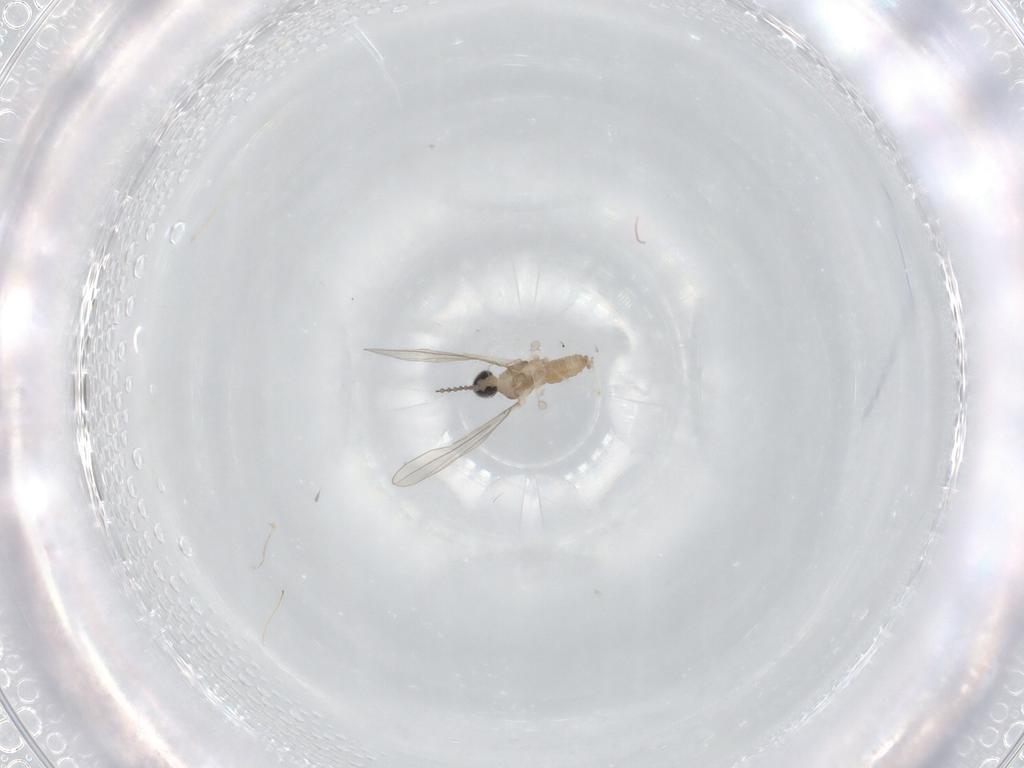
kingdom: Animalia
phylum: Arthropoda
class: Insecta
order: Diptera
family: Cecidomyiidae
